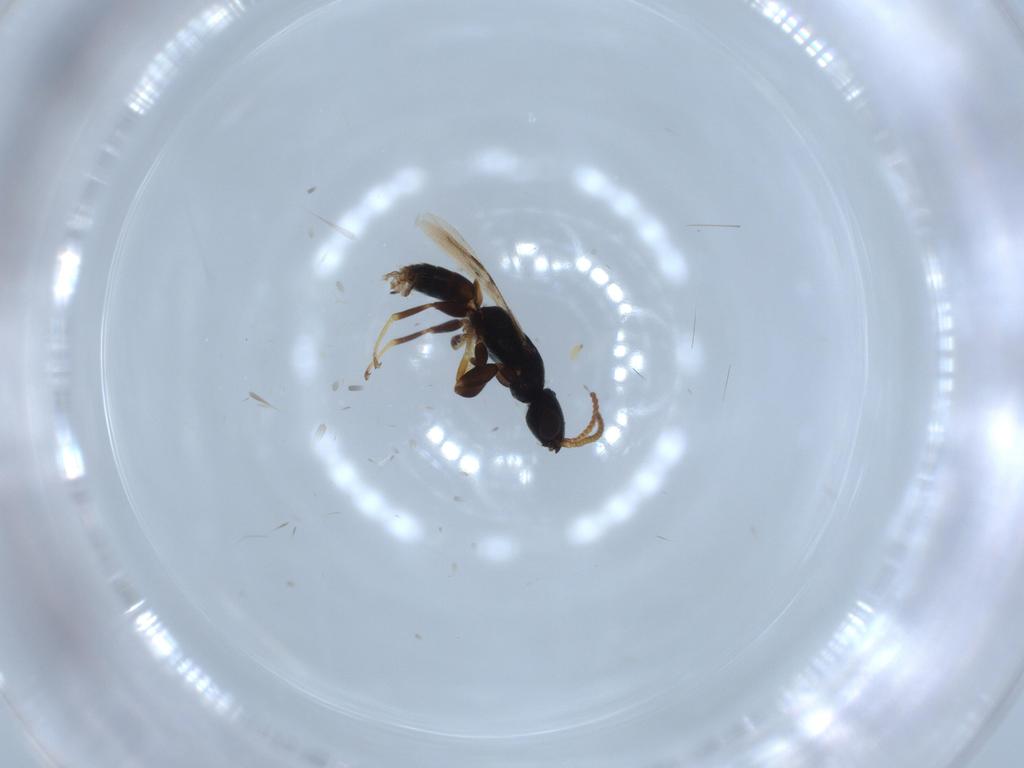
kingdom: Animalia
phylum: Arthropoda
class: Insecta
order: Hymenoptera
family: Bethylidae
